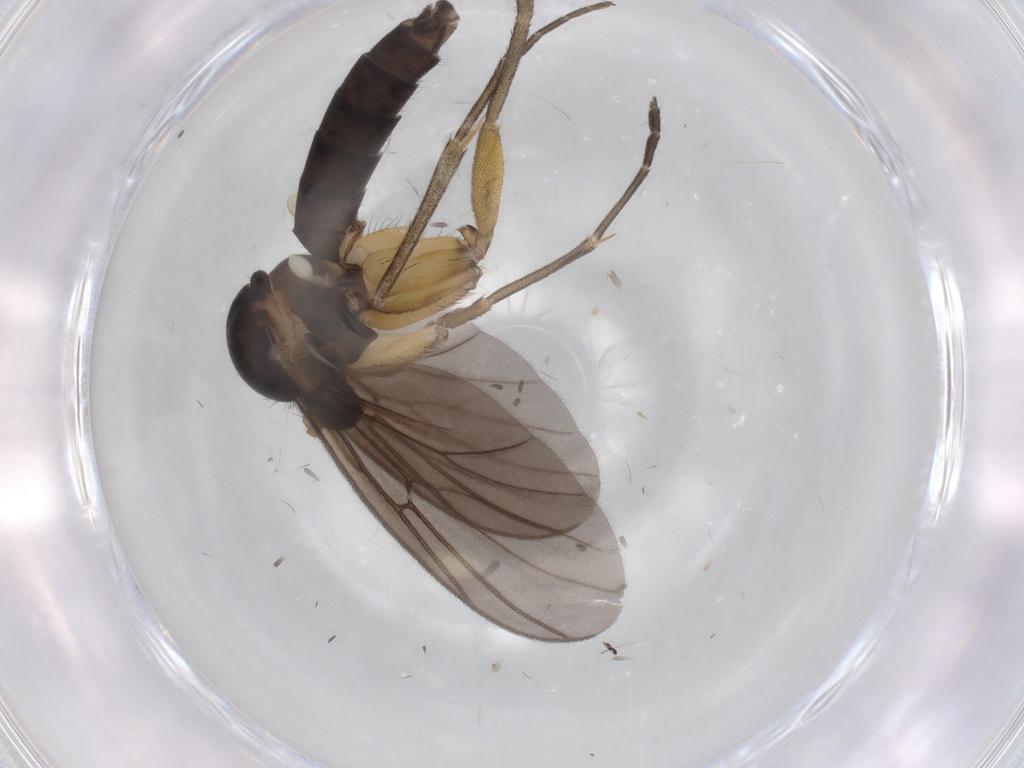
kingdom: Animalia
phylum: Arthropoda
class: Insecta
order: Diptera
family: Mycetophilidae
